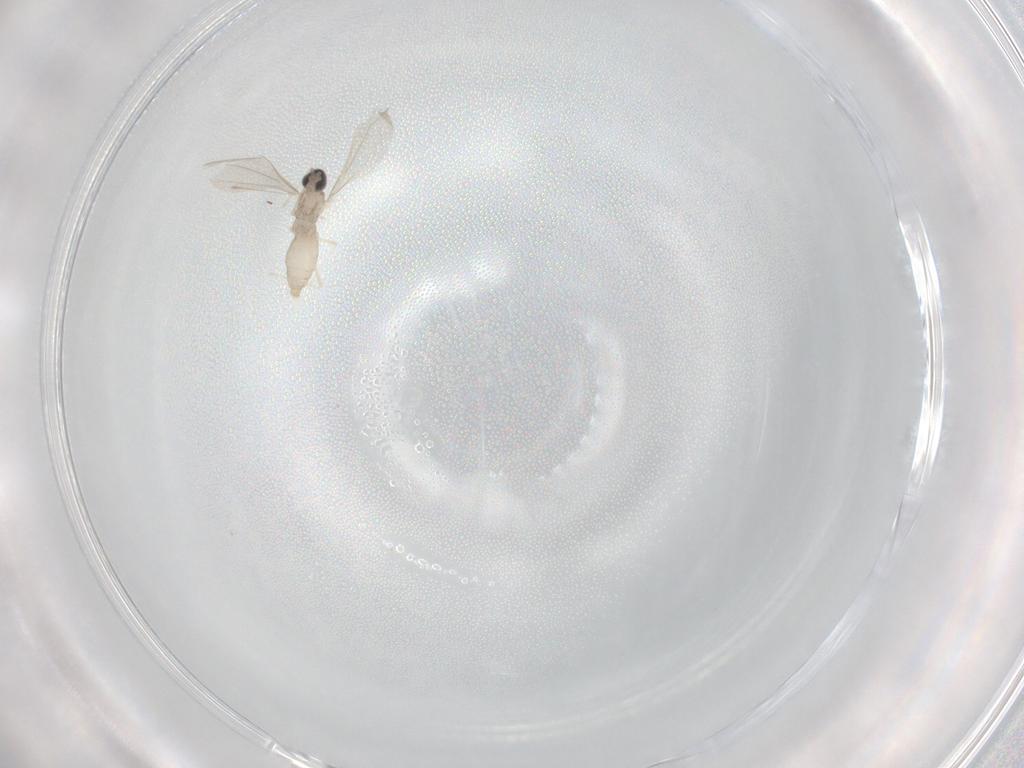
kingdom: Animalia
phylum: Arthropoda
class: Insecta
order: Diptera
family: Cecidomyiidae
